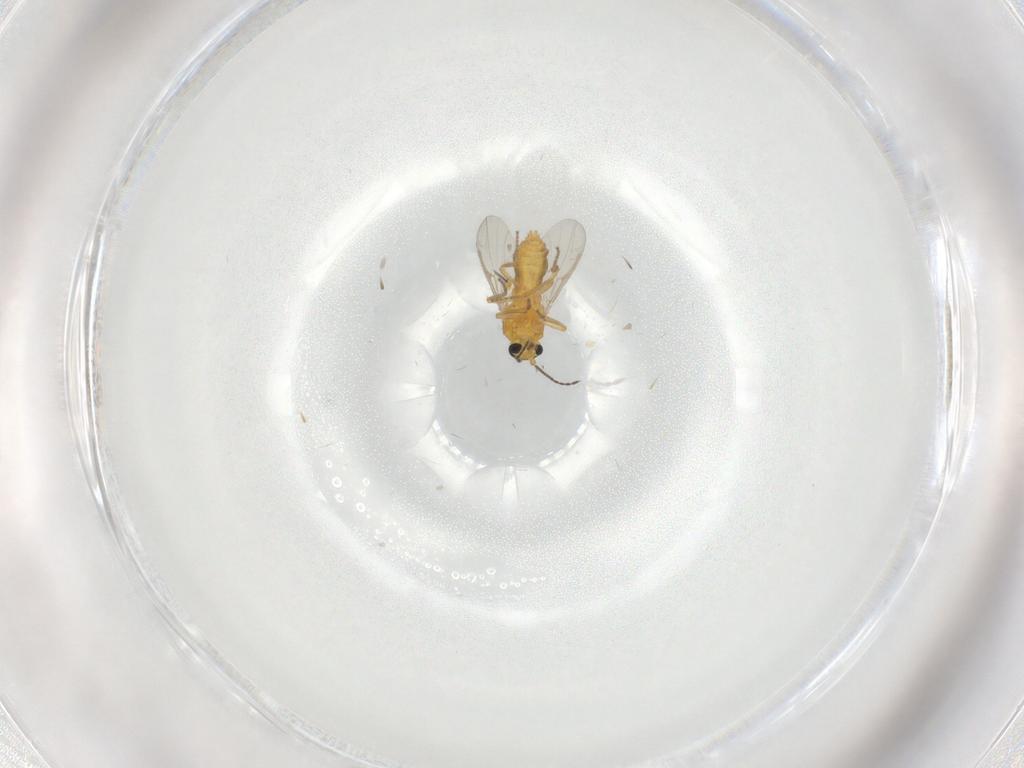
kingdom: Animalia
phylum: Arthropoda
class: Insecta
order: Diptera
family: Ceratopogonidae
